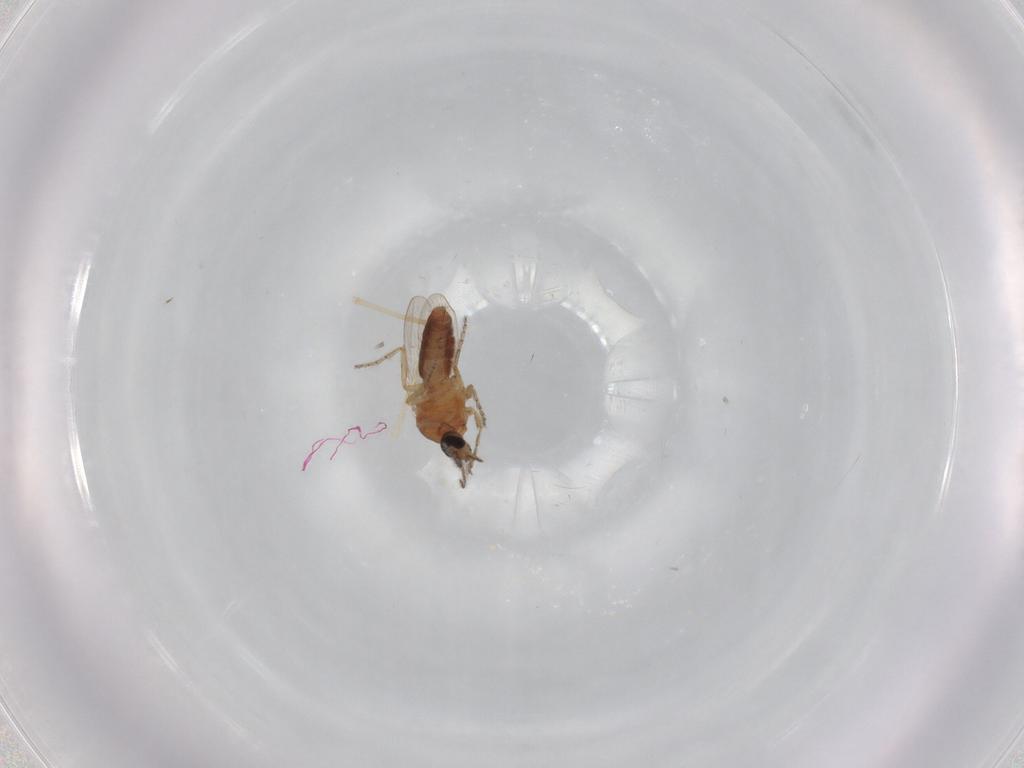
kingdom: Animalia
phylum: Arthropoda
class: Insecta
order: Diptera
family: Ceratopogonidae
